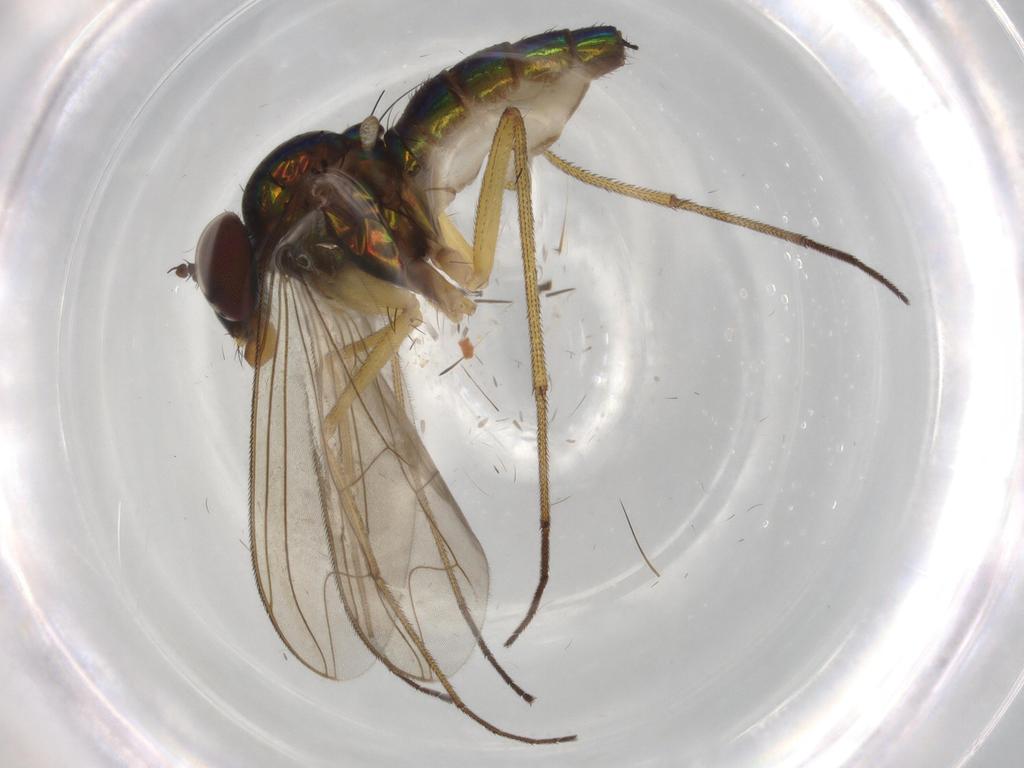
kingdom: Animalia
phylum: Arthropoda
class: Insecta
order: Diptera
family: Dolichopodidae
